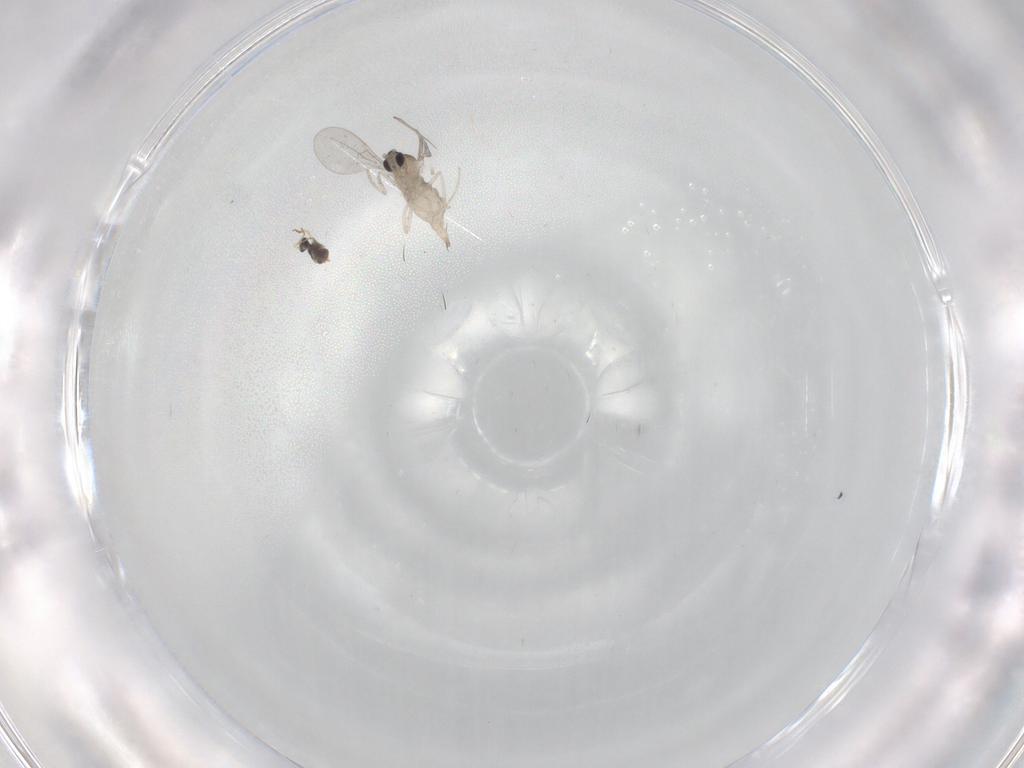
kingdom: Animalia
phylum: Arthropoda
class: Insecta
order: Diptera
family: Cecidomyiidae
